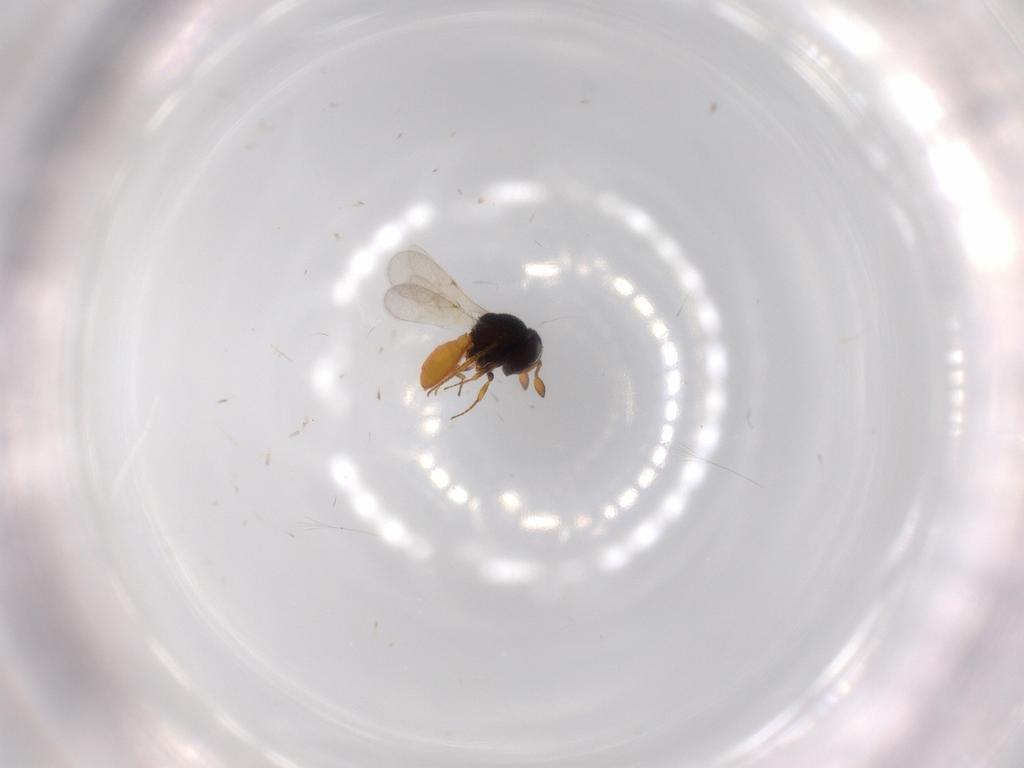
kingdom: Animalia
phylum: Arthropoda
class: Insecta
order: Hymenoptera
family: Scelionidae
